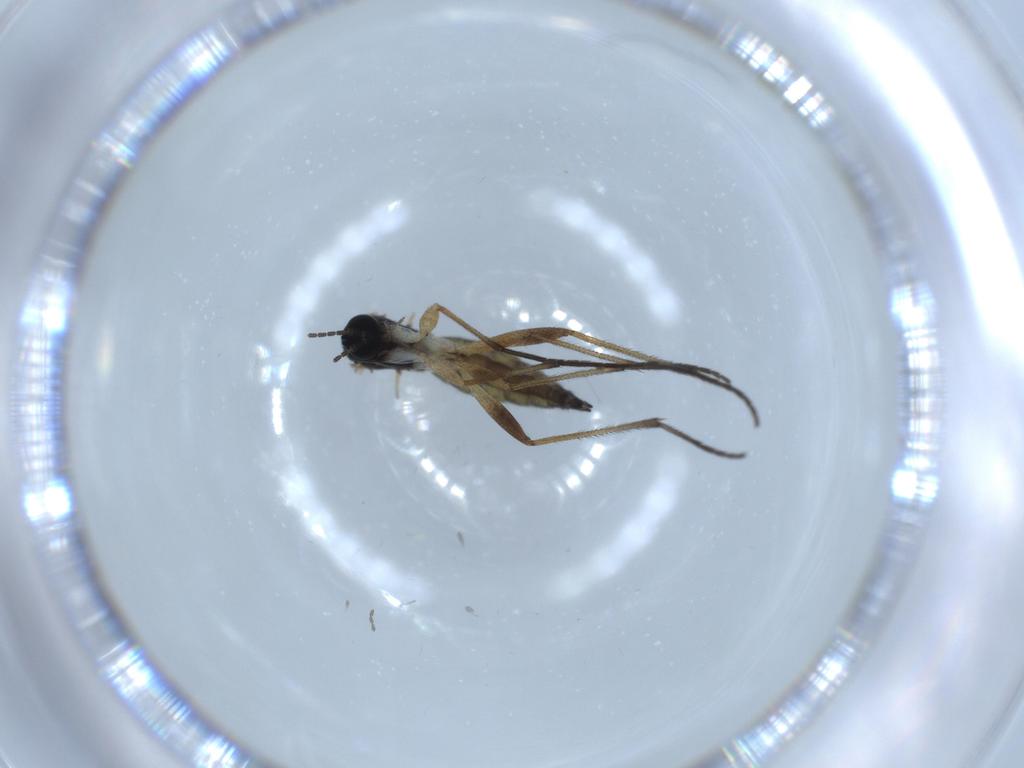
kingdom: Animalia
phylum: Arthropoda
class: Insecta
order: Diptera
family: Sciaridae
